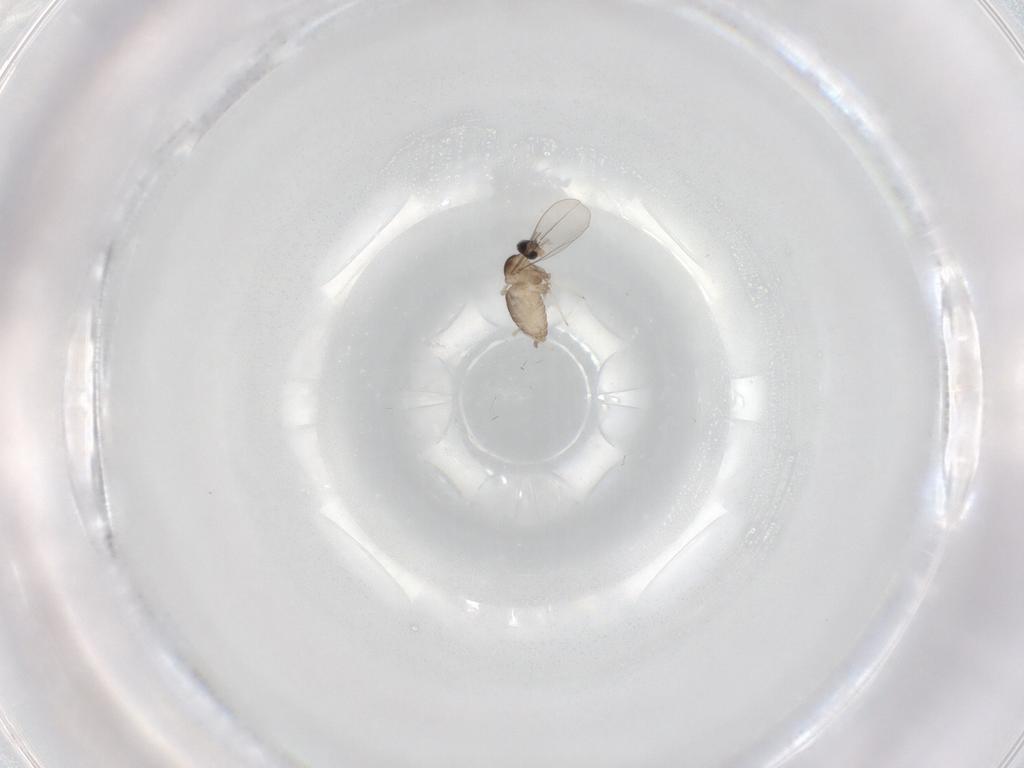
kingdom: Animalia
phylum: Arthropoda
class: Insecta
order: Diptera
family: Cecidomyiidae
